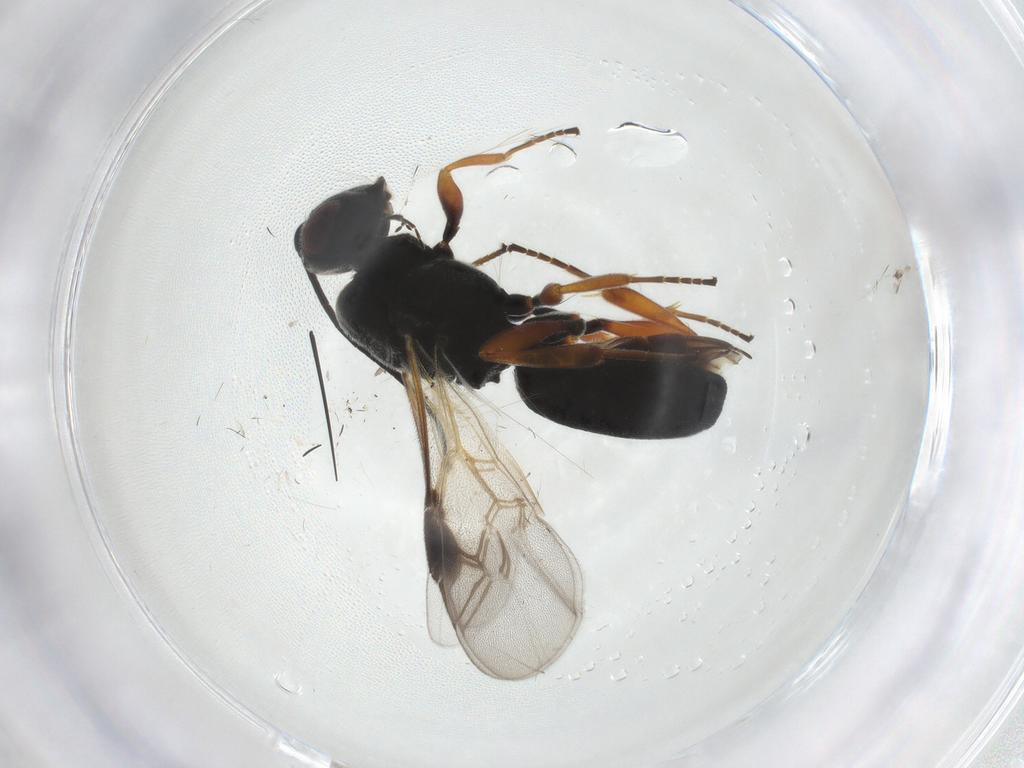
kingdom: Animalia
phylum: Arthropoda
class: Insecta
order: Hymenoptera
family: Braconidae
